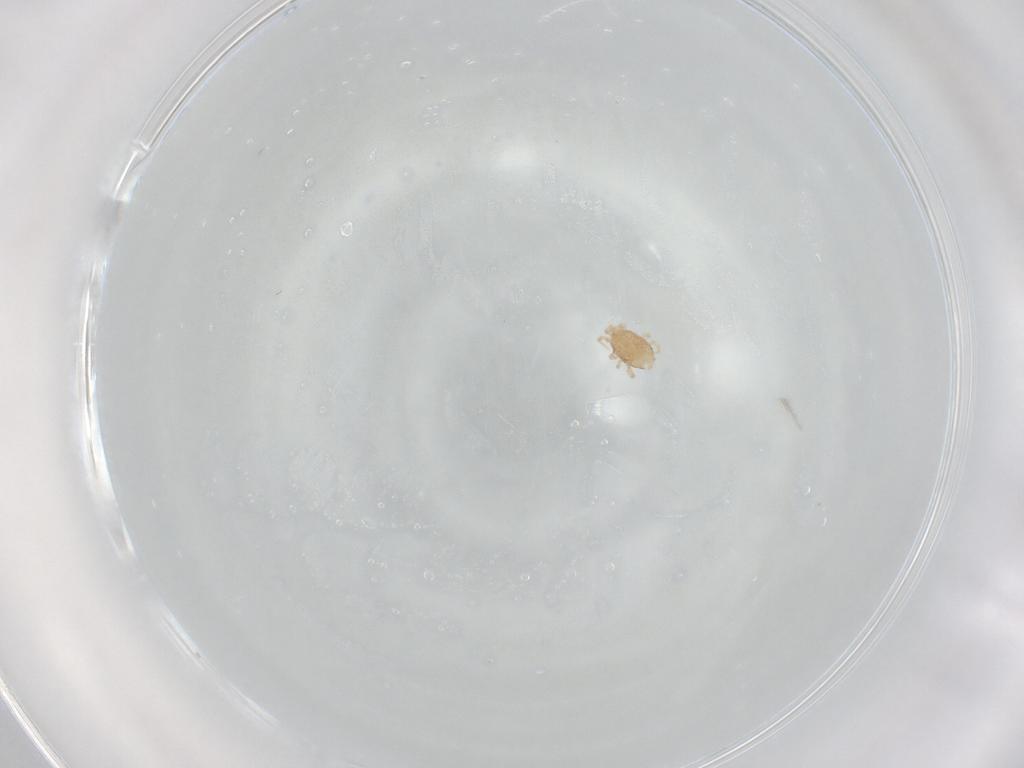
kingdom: Animalia
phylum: Arthropoda
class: Arachnida
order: Mesostigmata
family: Melicharidae
